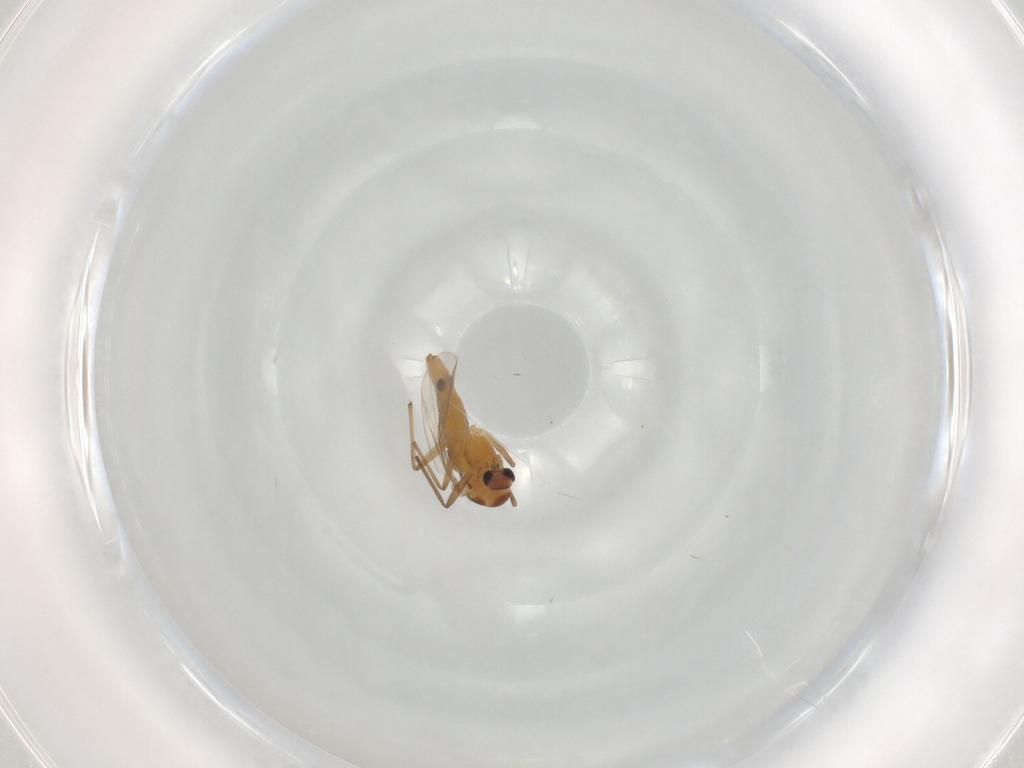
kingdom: Animalia
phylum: Arthropoda
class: Insecta
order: Diptera
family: Chironomidae
